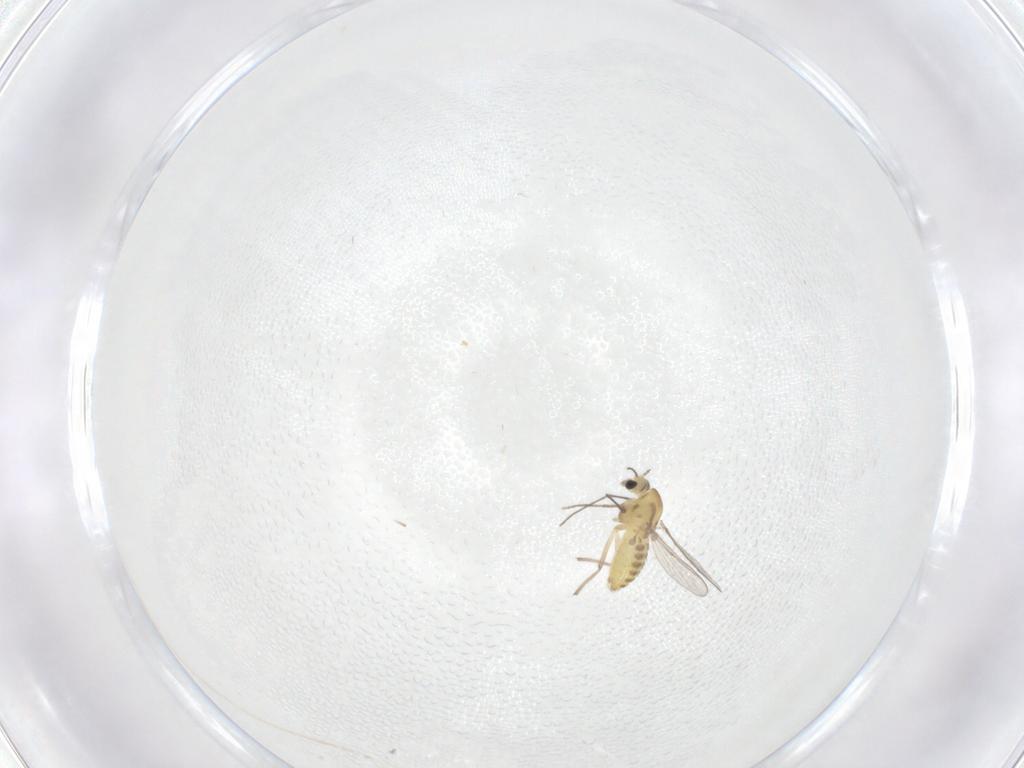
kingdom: Animalia
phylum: Arthropoda
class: Insecta
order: Diptera
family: Chironomidae
